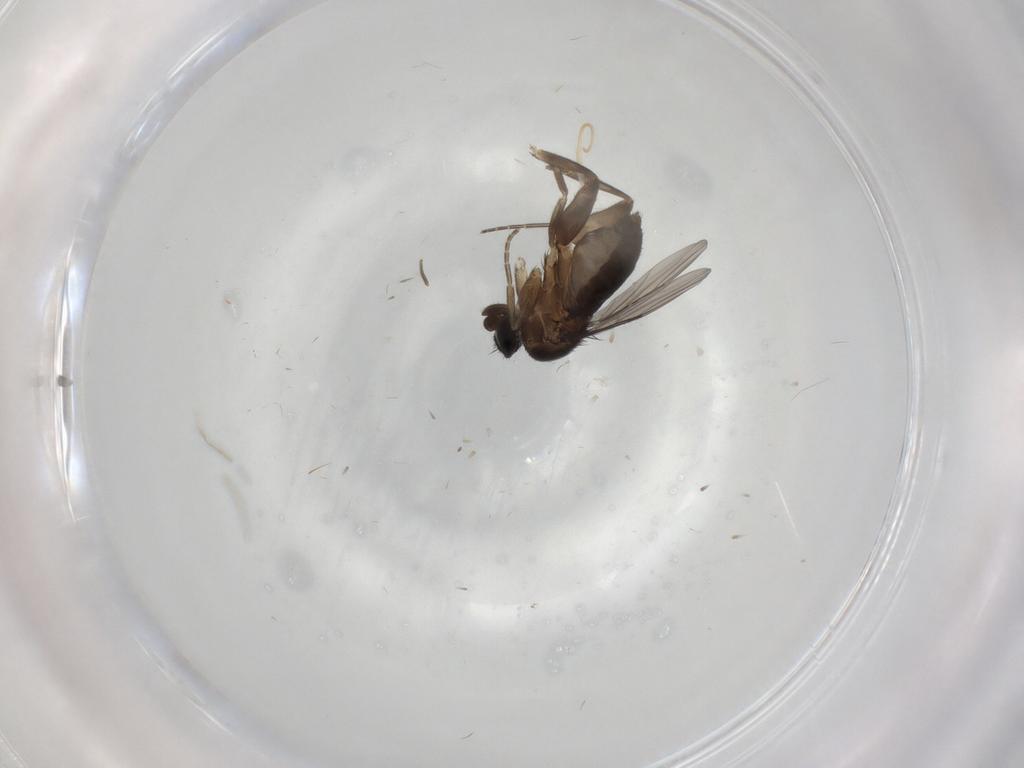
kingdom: Animalia
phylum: Arthropoda
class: Insecta
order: Diptera
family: Phoridae
